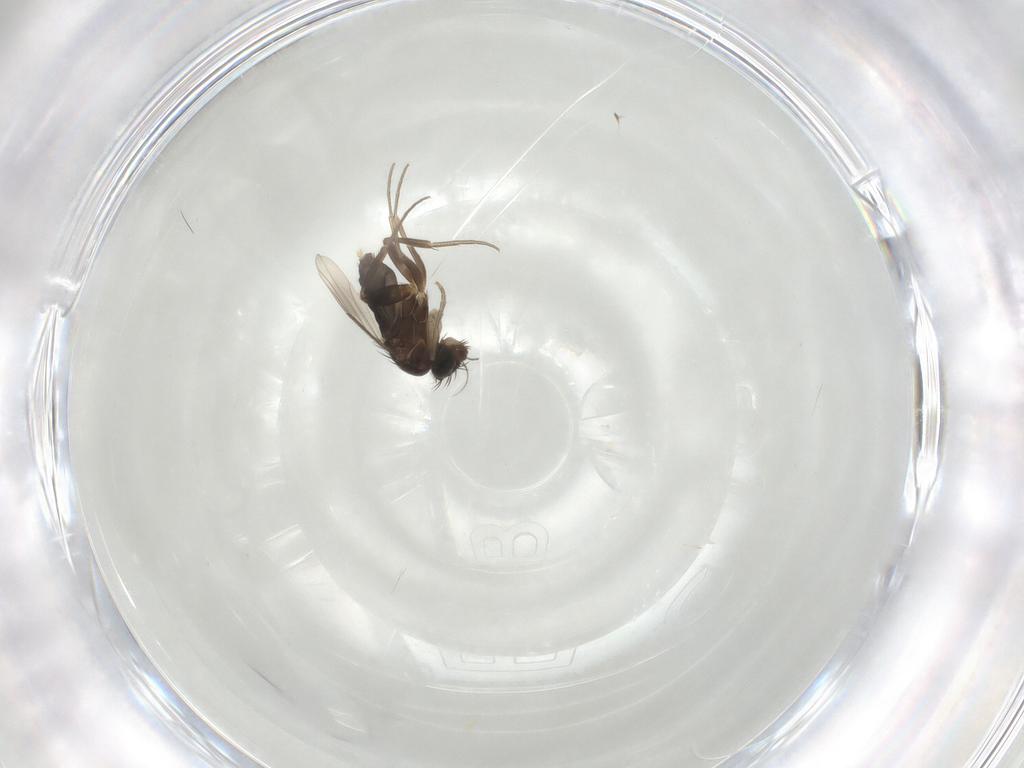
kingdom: Animalia
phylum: Arthropoda
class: Insecta
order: Diptera
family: Phoridae
